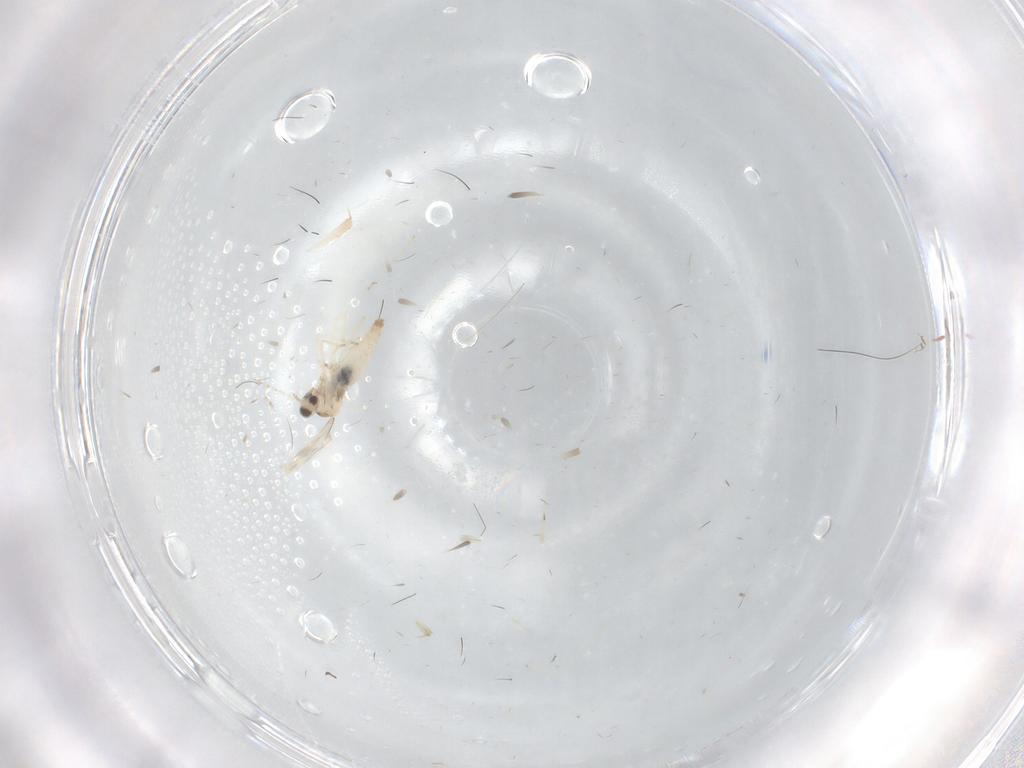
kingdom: Animalia
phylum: Arthropoda
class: Insecta
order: Diptera
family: Cecidomyiidae
